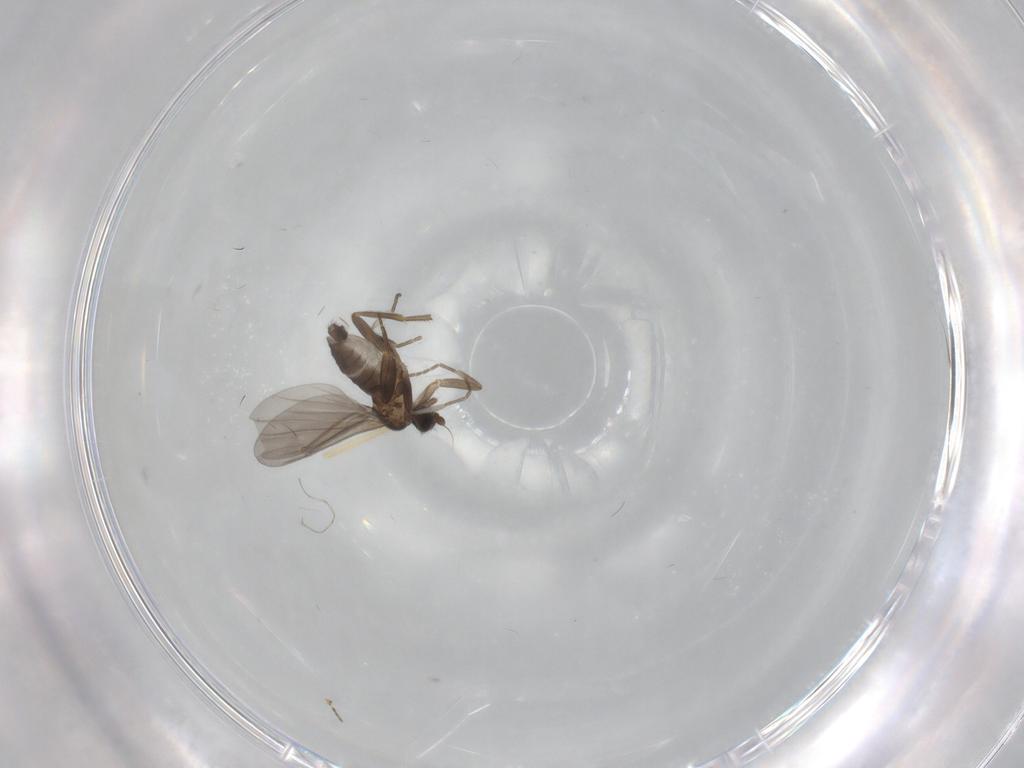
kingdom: Animalia
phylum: Arthropoda
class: Insecta
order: Diptera
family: Phoridae
